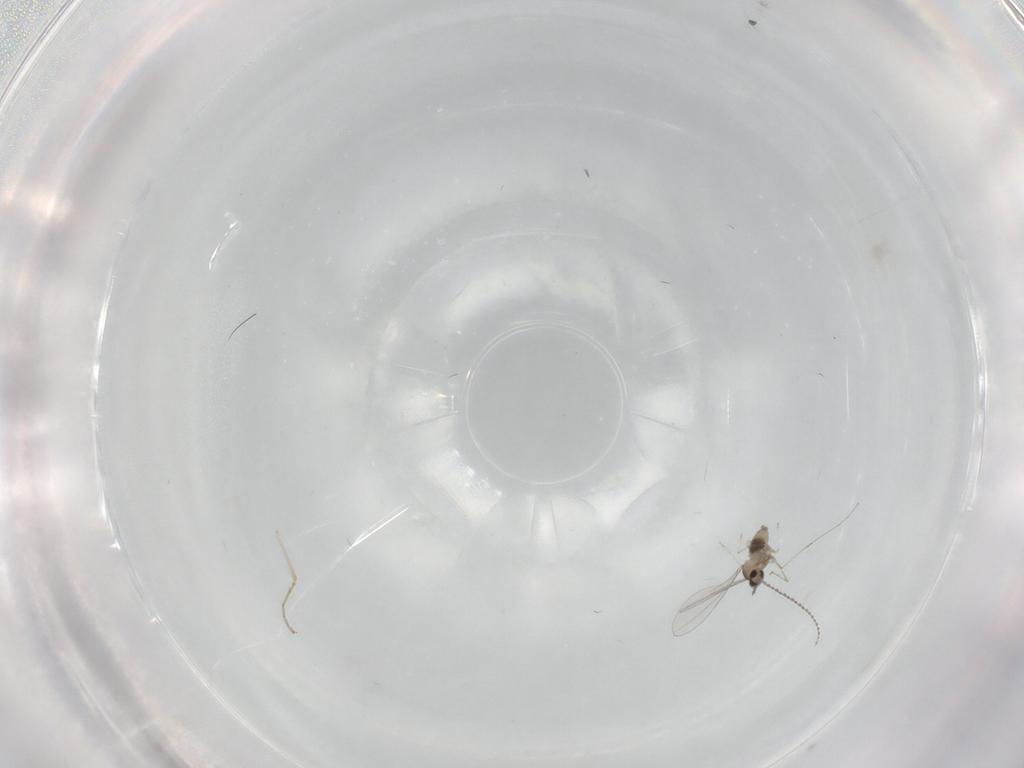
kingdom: Animalia
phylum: Arthropoda
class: Insecta
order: Diptera
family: Cecidomyiidae
